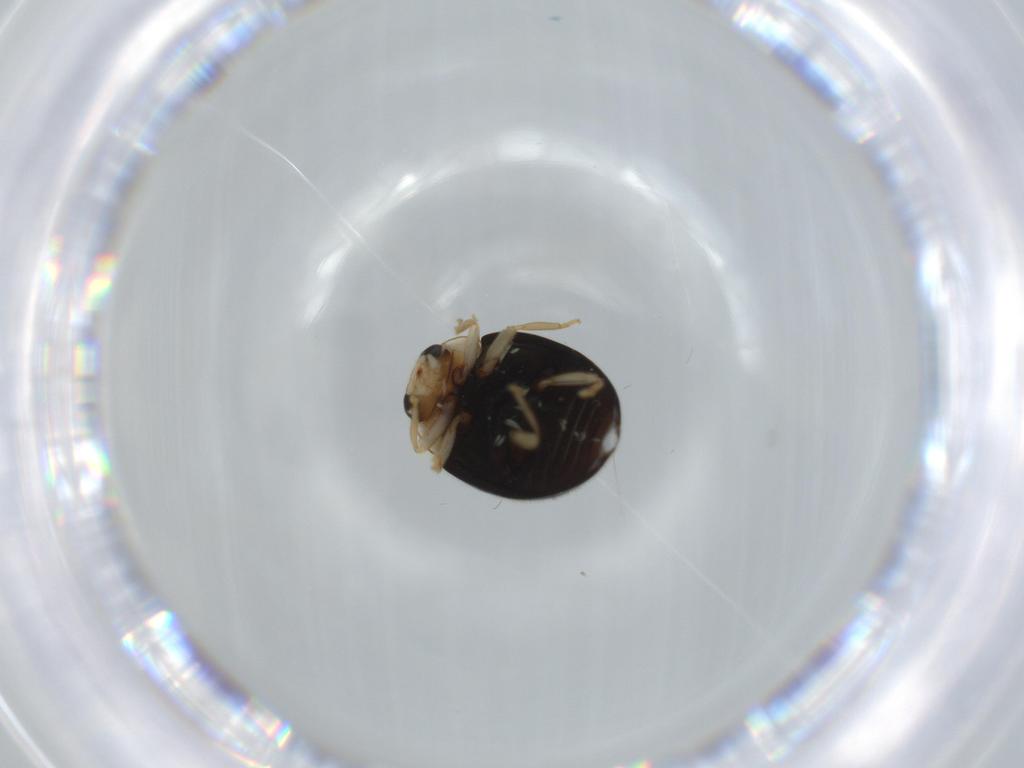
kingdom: Animalia
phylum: Arthropoda
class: Insecta
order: Coleoptera
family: Coccinellidae
